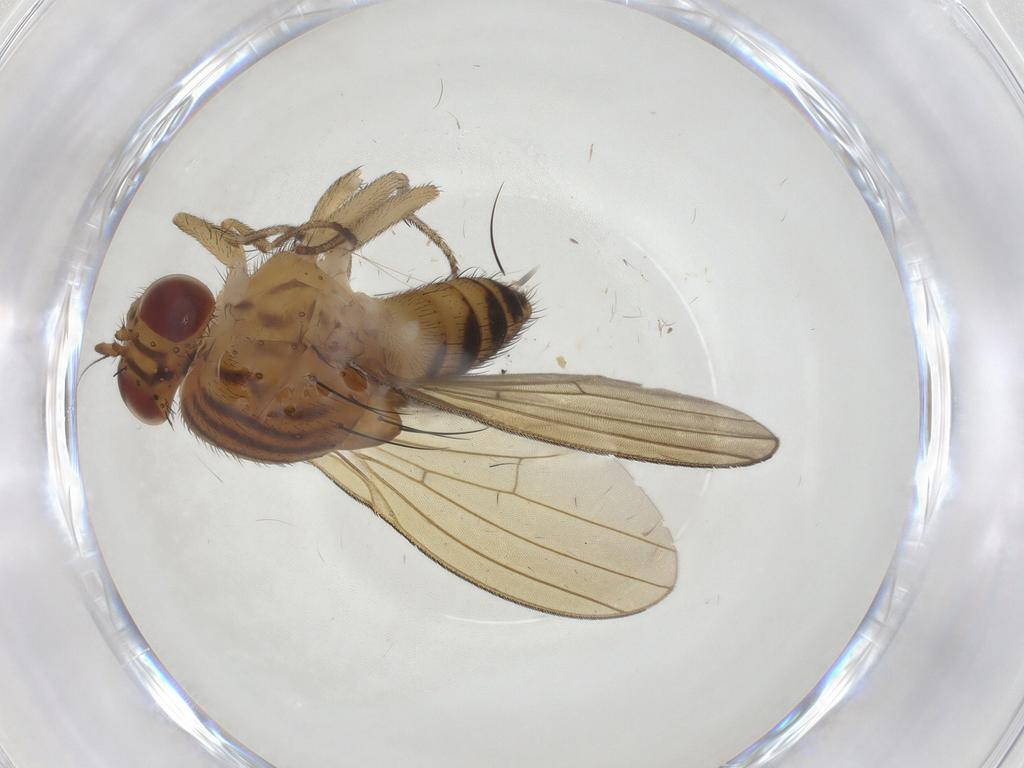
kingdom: Animalia
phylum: Arthropoda
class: Insecta
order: Diptera
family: Lauxaniidae
